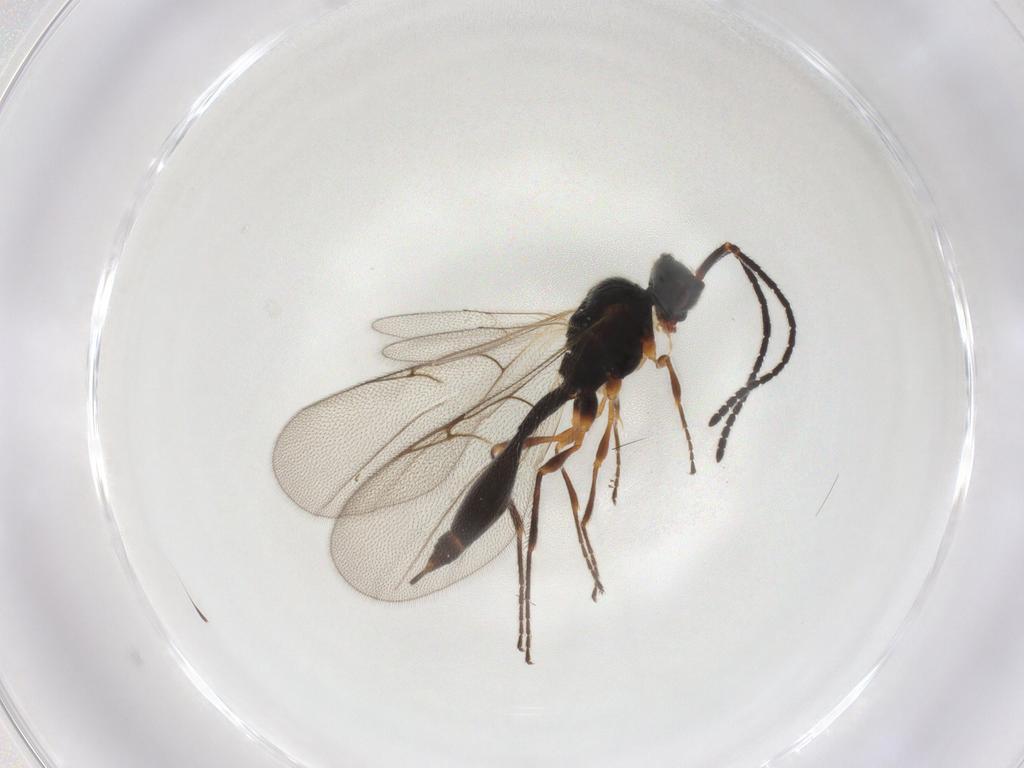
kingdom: Animalia
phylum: Arthropoda
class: Insecta
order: Hymenoptera
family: Braconidae
